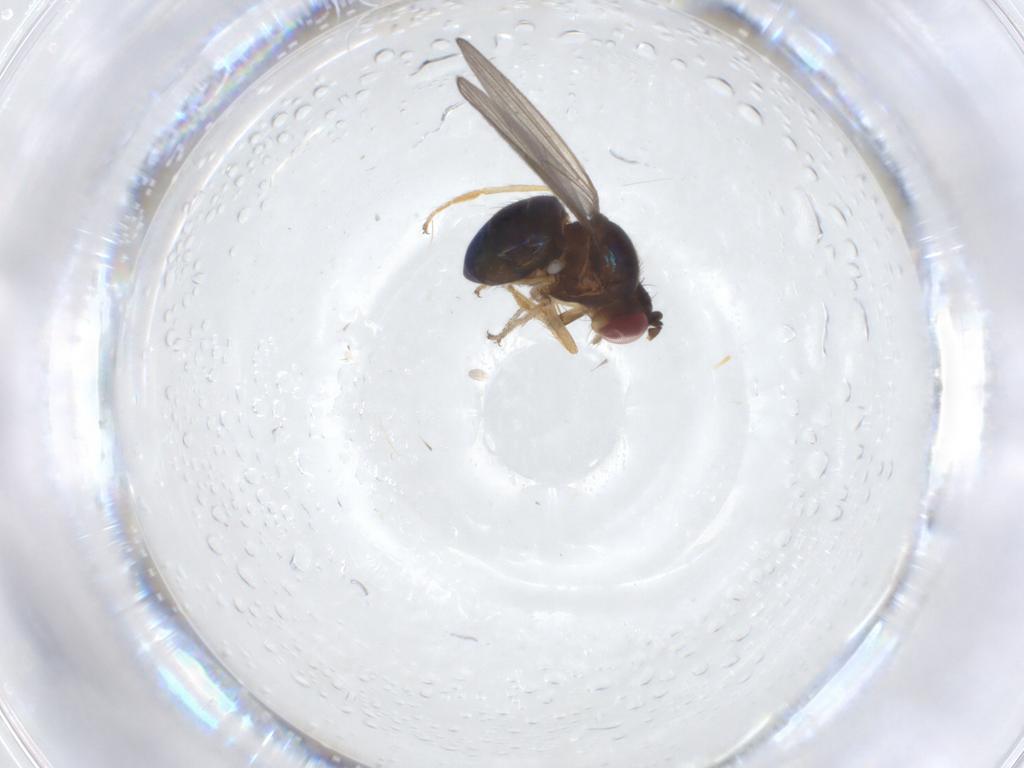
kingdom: Animalia
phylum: Arthropoda
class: Insecta
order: Diptera
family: Ephydridae
